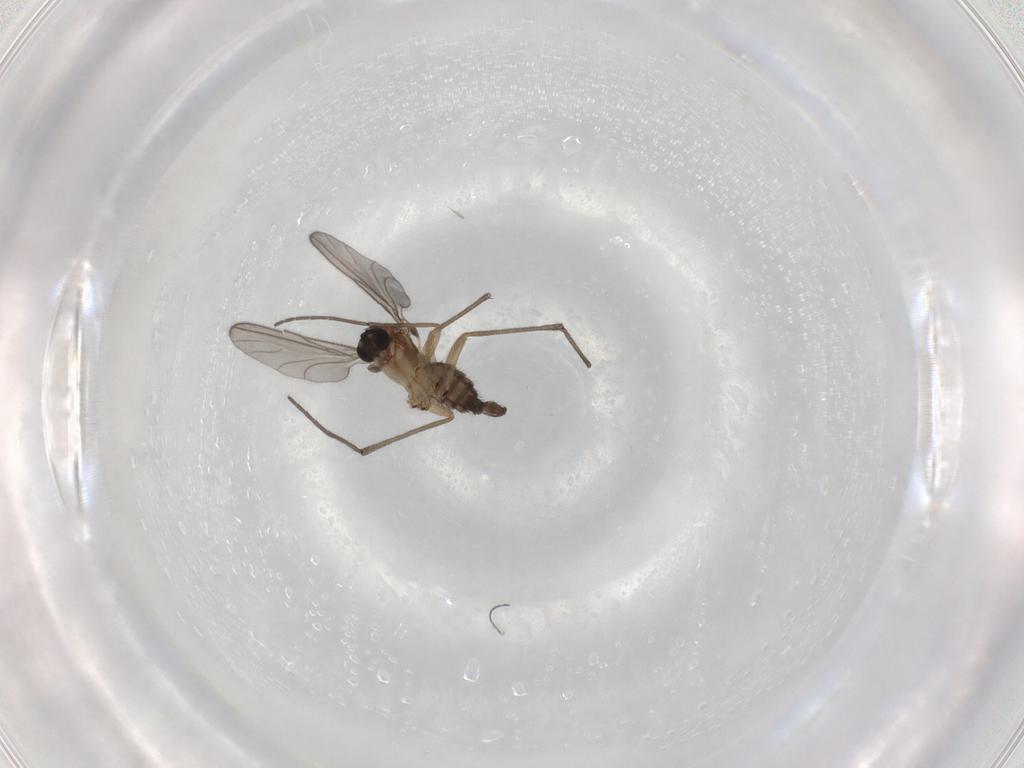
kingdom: Animalia
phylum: Arthropoda
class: Insecta
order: Diptera
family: Sciaridae
